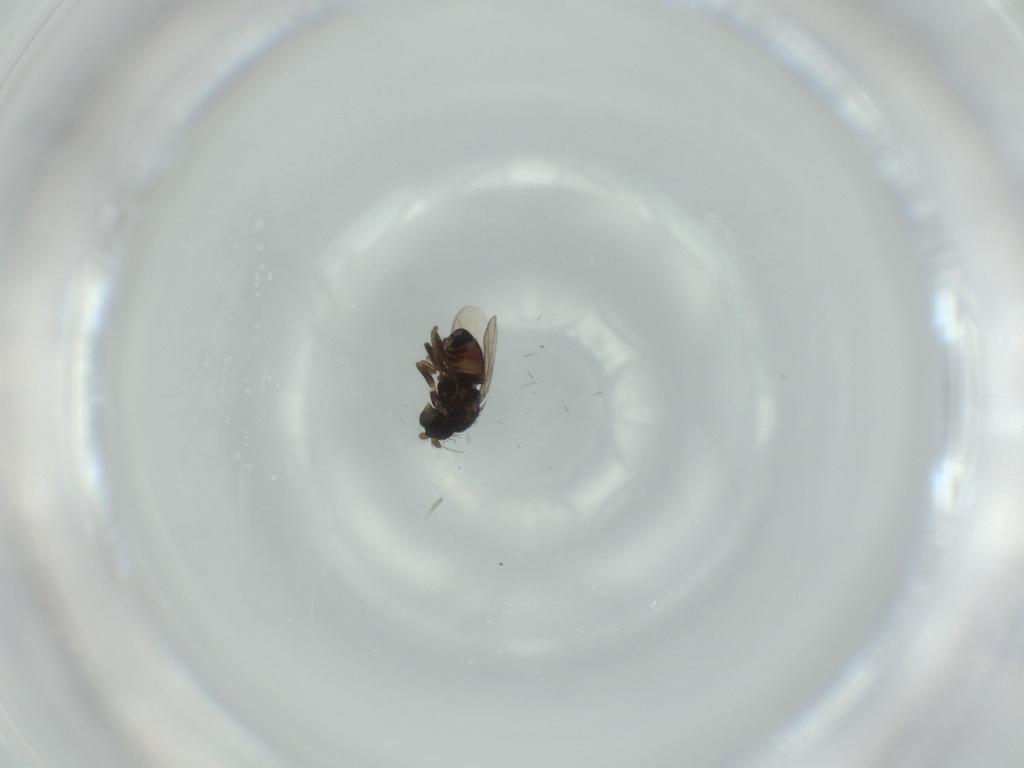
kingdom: Animalia
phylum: Arthropoda
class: Insecta
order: Diptera
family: Sphaeroceridae
